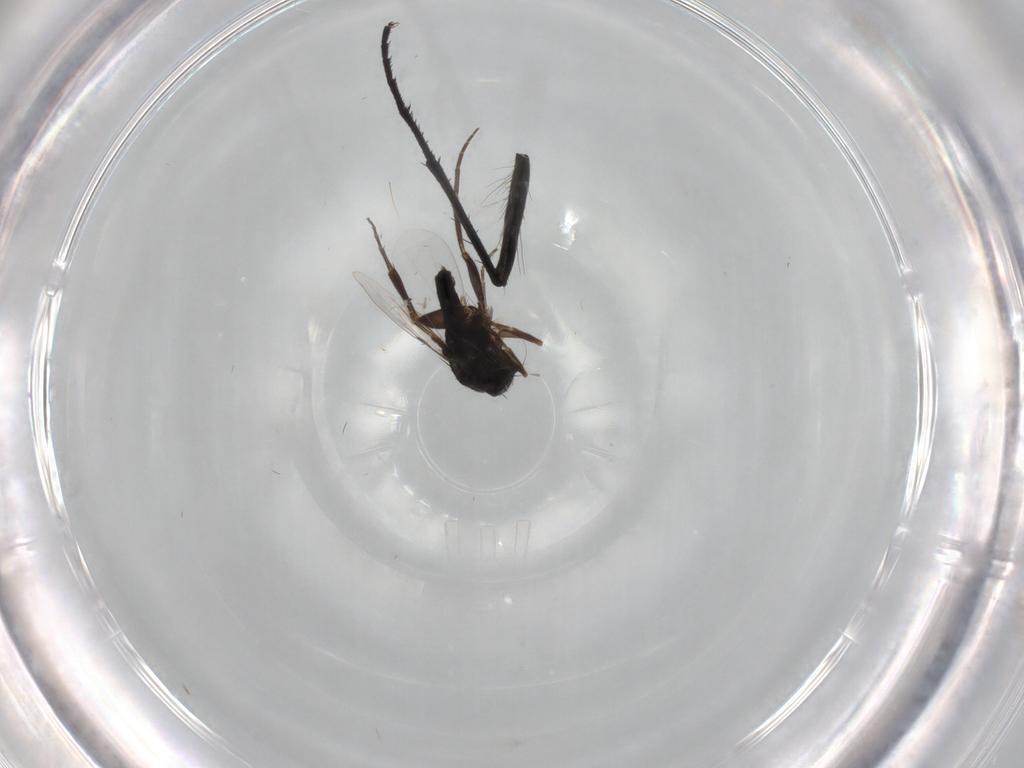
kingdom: Animalia
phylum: Arthropoda
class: Insecta
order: Diptera
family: Phoridae
